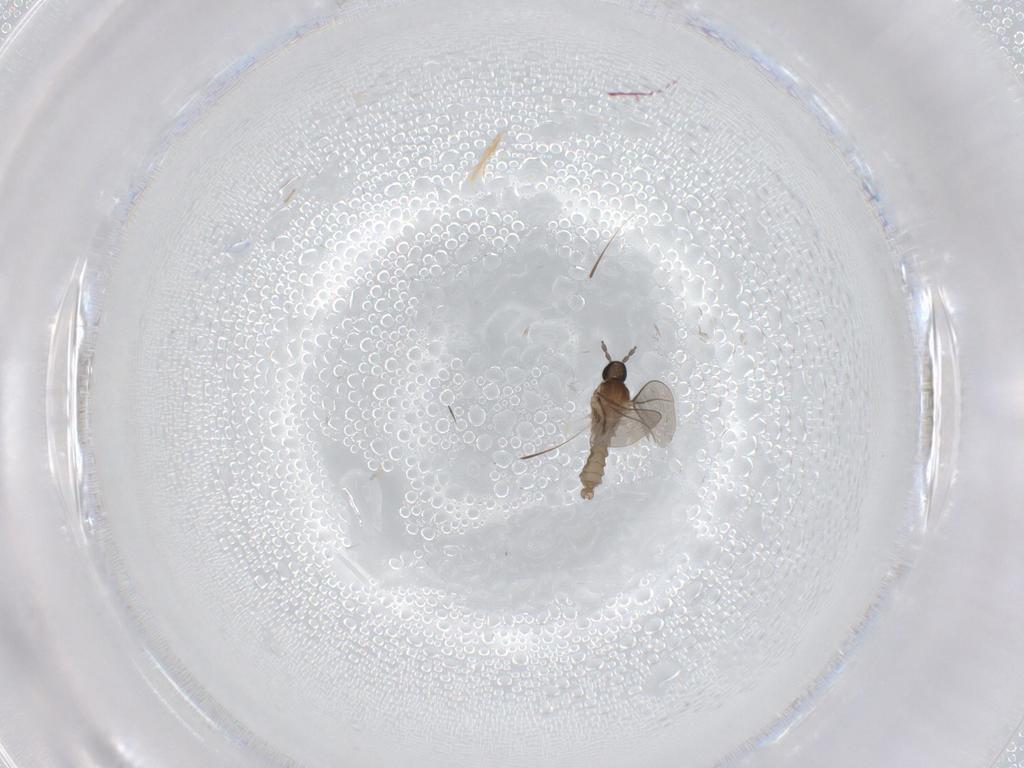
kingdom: Animalia
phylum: Arthropoda
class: Insecta
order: Diptera
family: Cecidomyiidae
